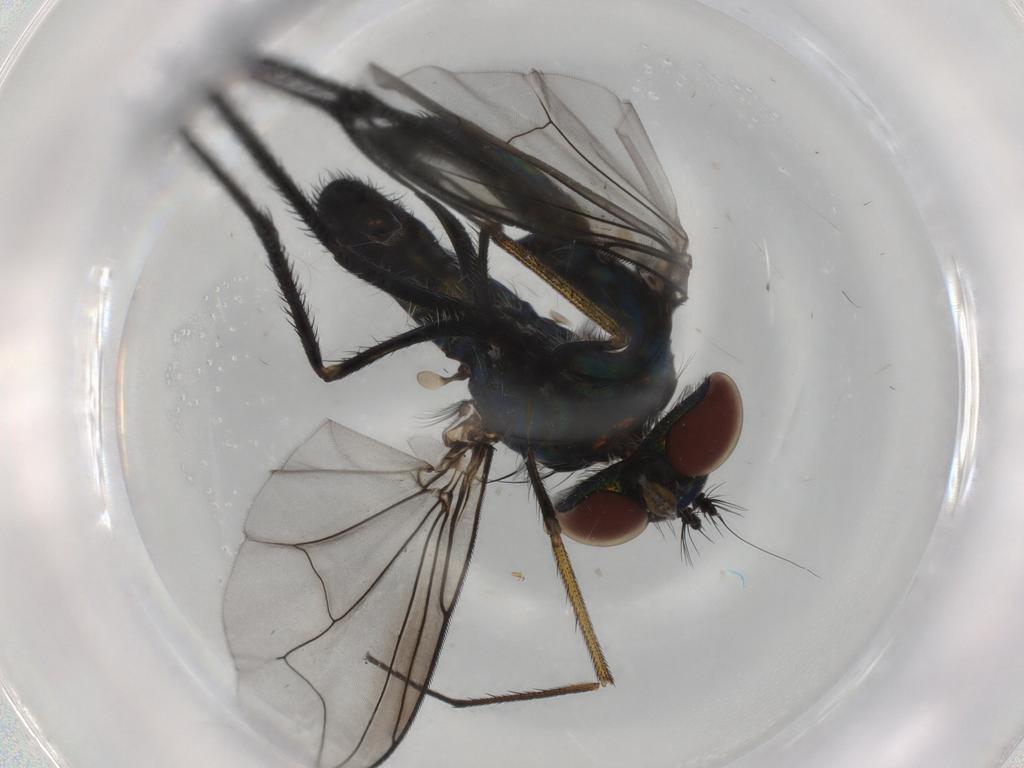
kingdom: Animalia
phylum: Arthropoda
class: Insecta
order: Diptera
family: Dolichopodidae
